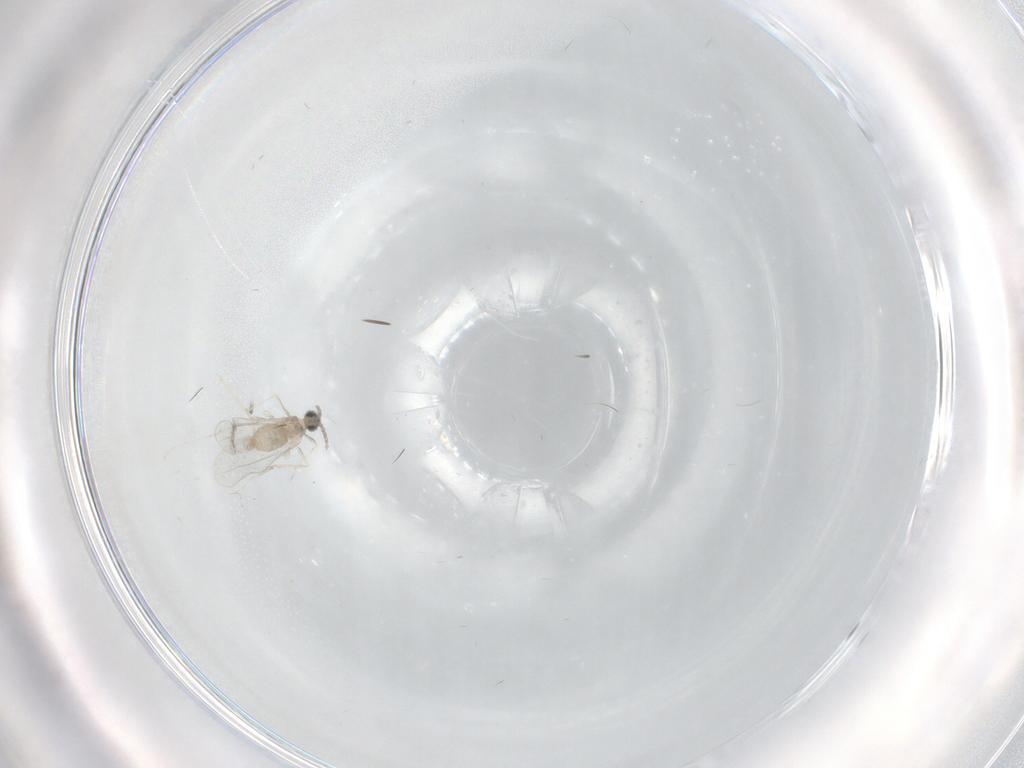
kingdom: Animalia
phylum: Arthropoda
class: Insecta
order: Diptera
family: Cecidomyiidae
